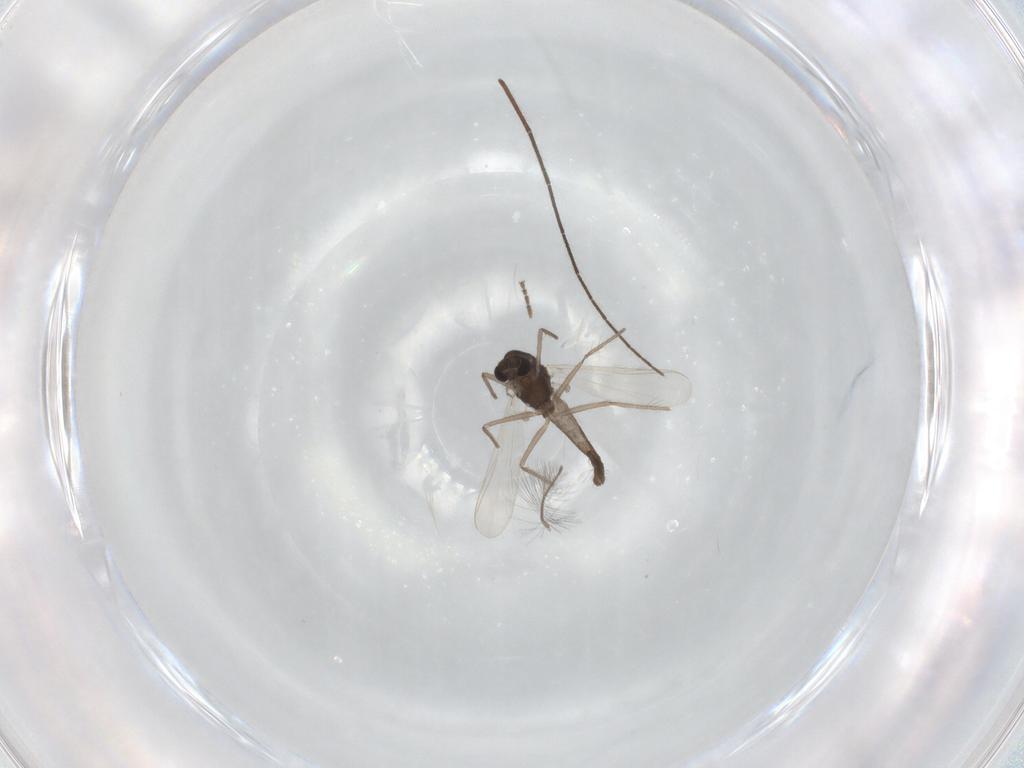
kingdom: Animalia
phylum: Arthropoda
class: Insecta
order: Diptera
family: Chironomidae
